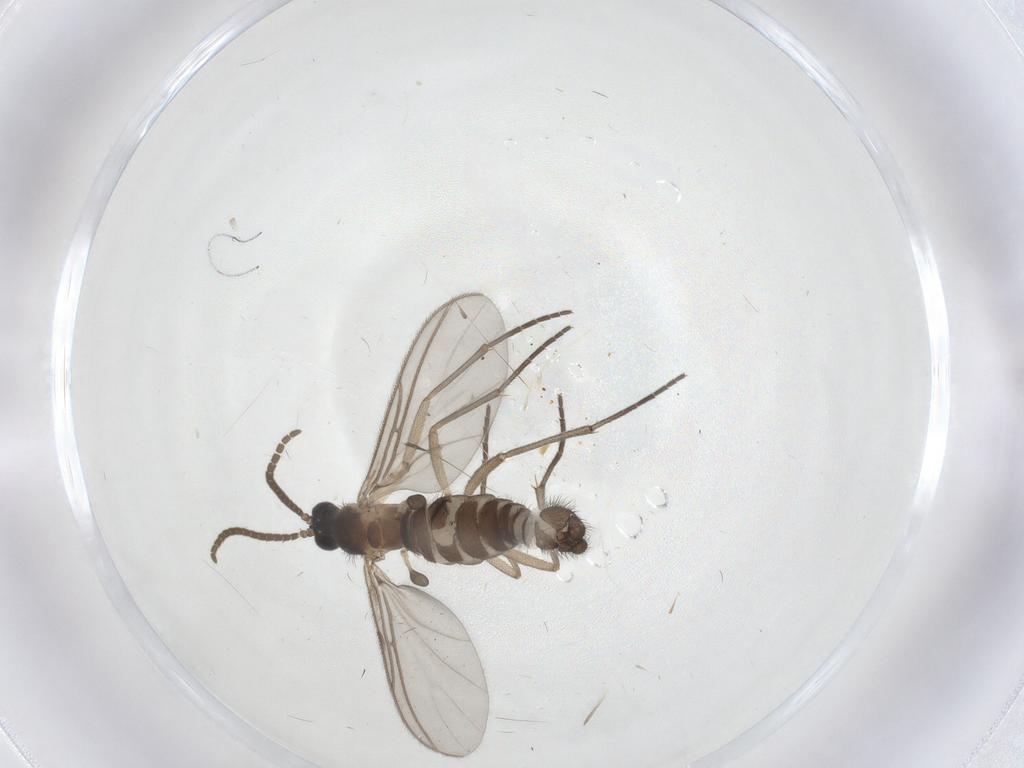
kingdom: Animalia
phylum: Arthropoda
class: Insecta
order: Diptera
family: Sciaridae
